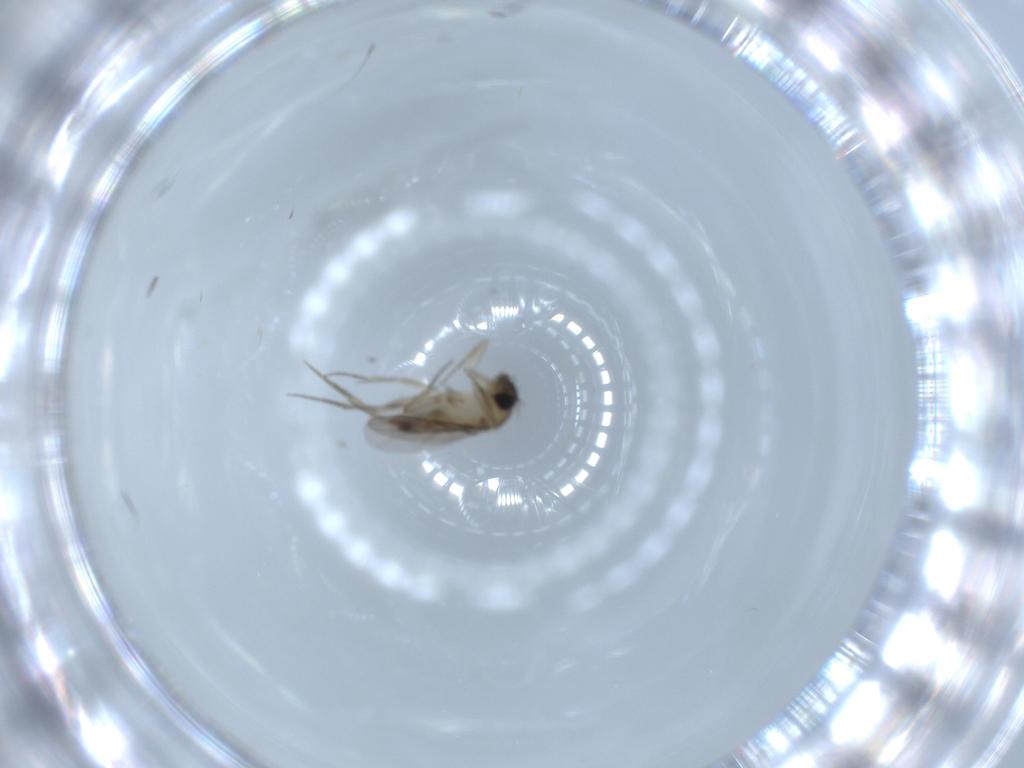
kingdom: Animalia
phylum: Arthropoda
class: Insecta
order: Diptera
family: Phoridae
